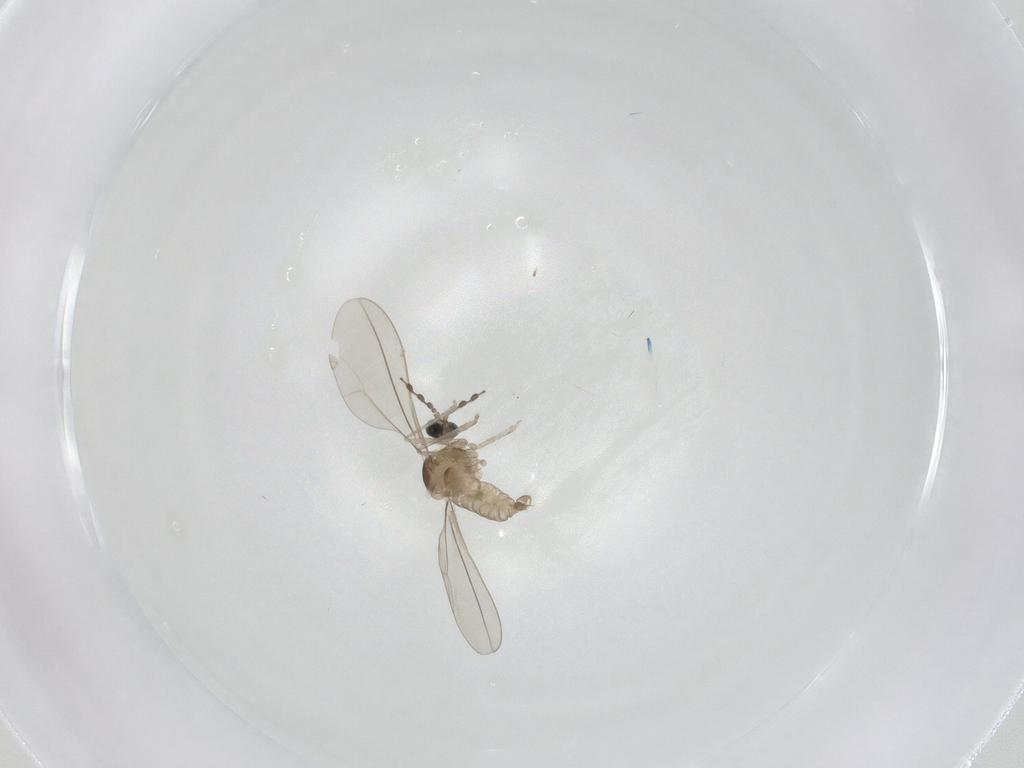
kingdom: Animalia
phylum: Arthropoda
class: Insecta
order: Diptera
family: Cecidomyiidae
